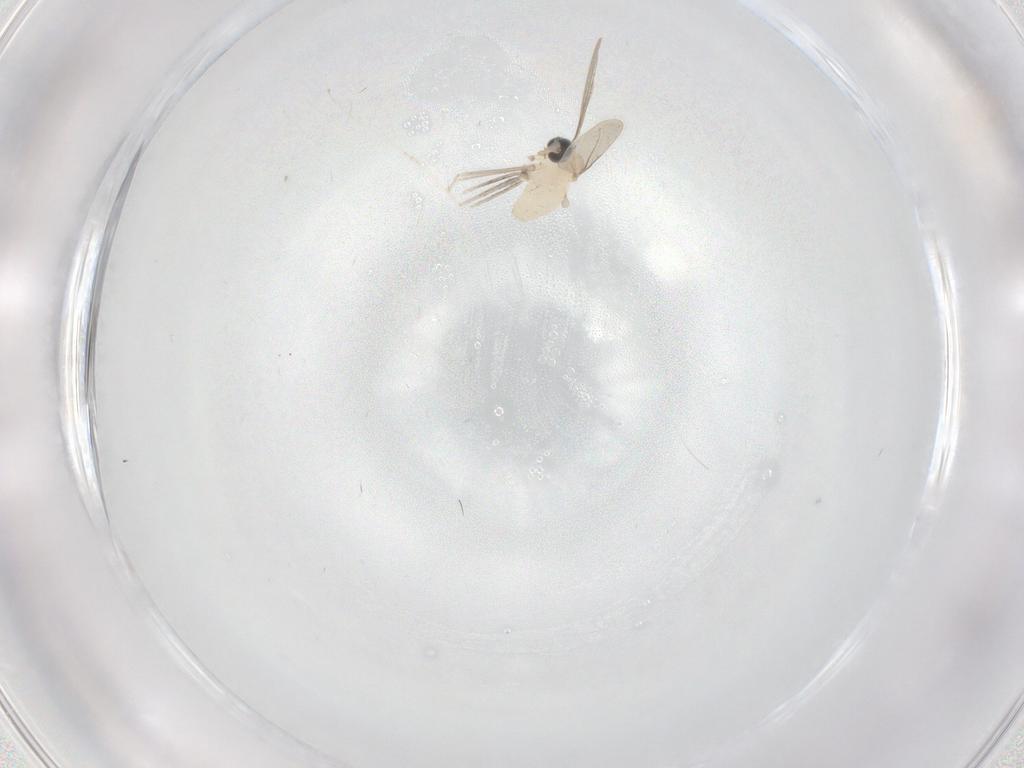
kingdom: Animalia
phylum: Arthropoda
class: Insecta
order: Diptera
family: Cecidomyiidae
